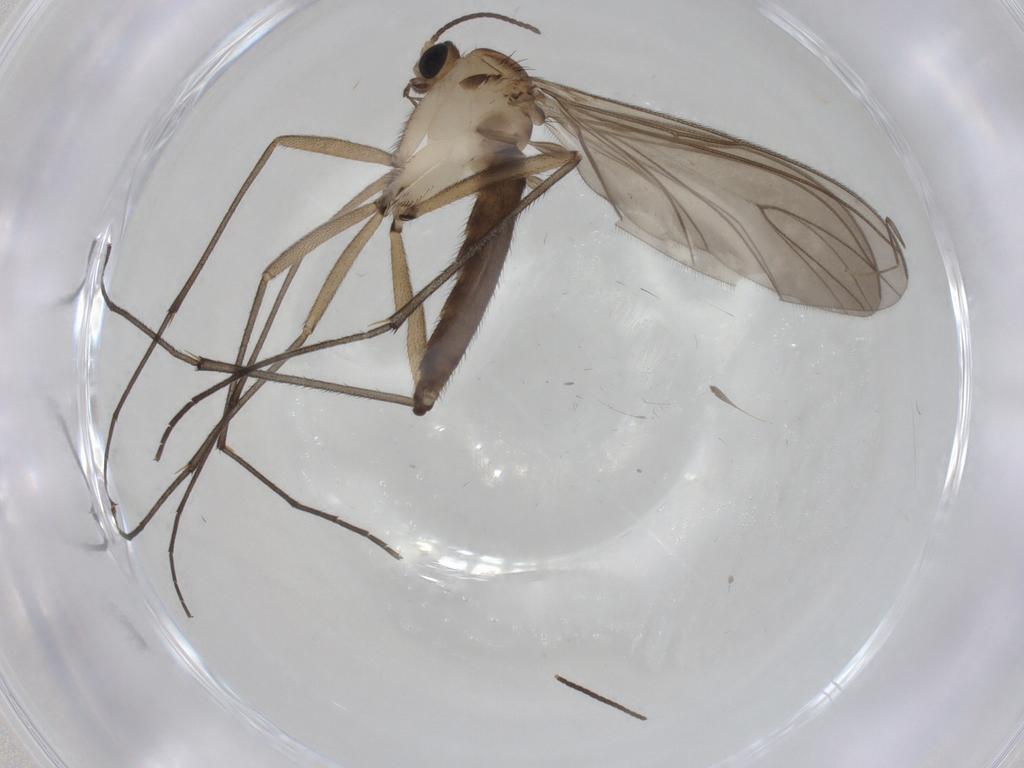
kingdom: Animalia
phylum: Arthropoda
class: Insecta
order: Diptera
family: Sciaridae
